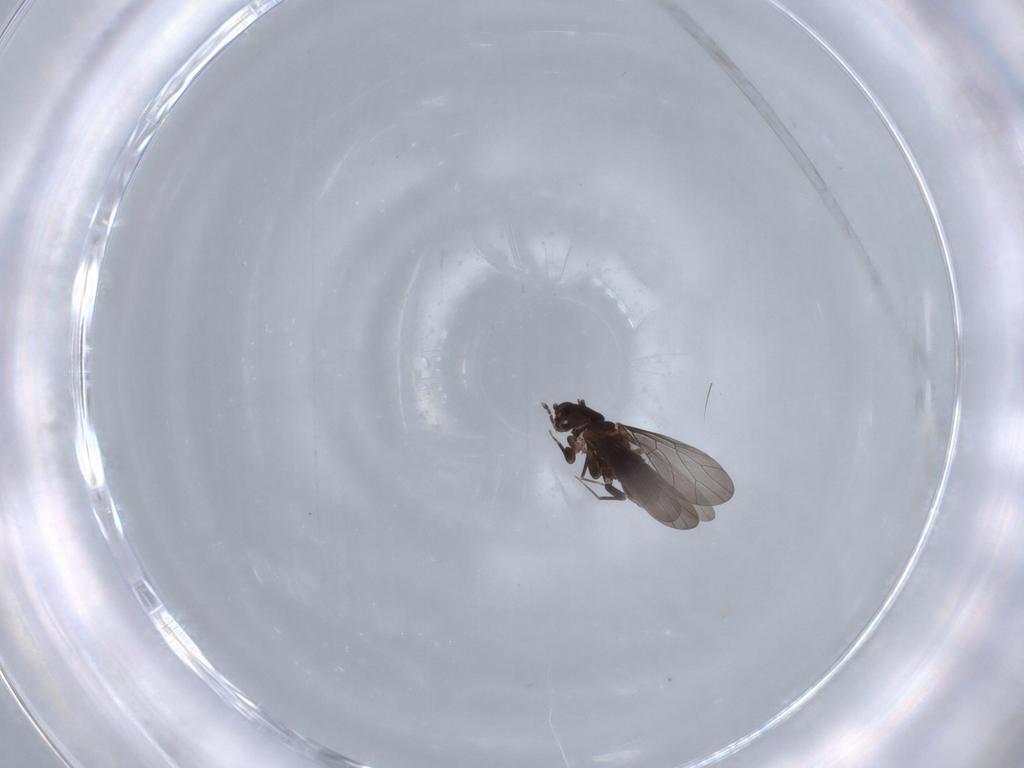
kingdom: Animalia
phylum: Arthropoda
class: Insecta
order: Psocodea
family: Lepidopsocidae
